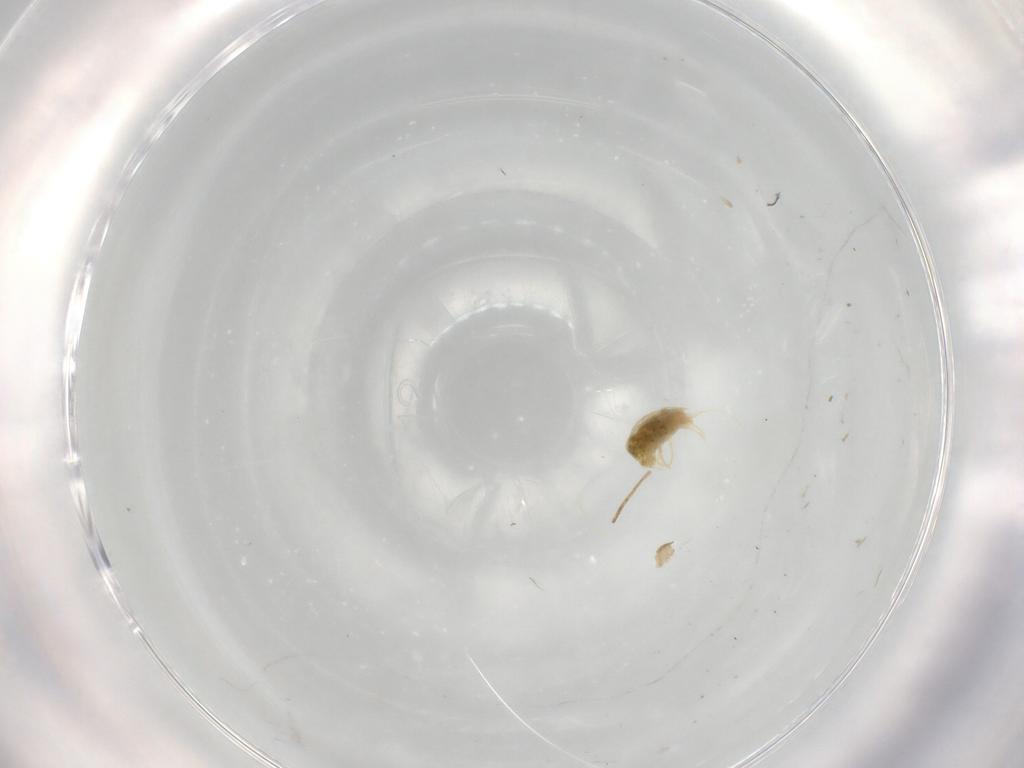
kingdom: Animalia
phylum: Arthropoda
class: Arachnida
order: Trombidiformes
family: Tetranychidae
